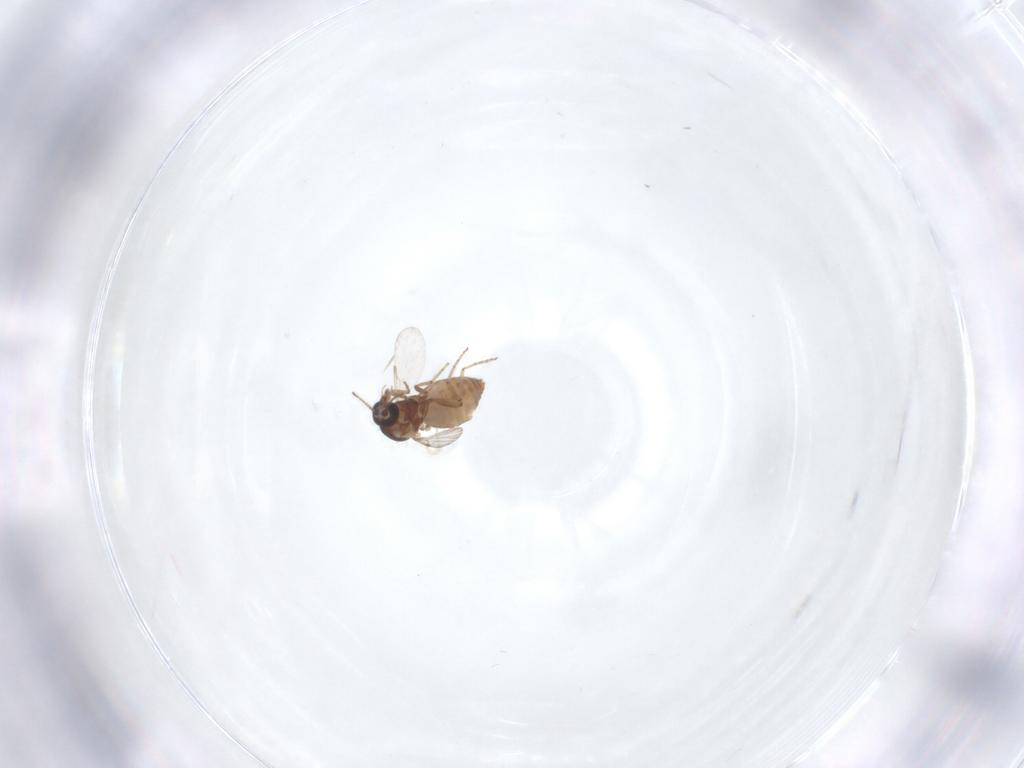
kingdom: Animalia
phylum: Arthropoda
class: Insecta
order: Diptera
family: Ceratopogonidae
